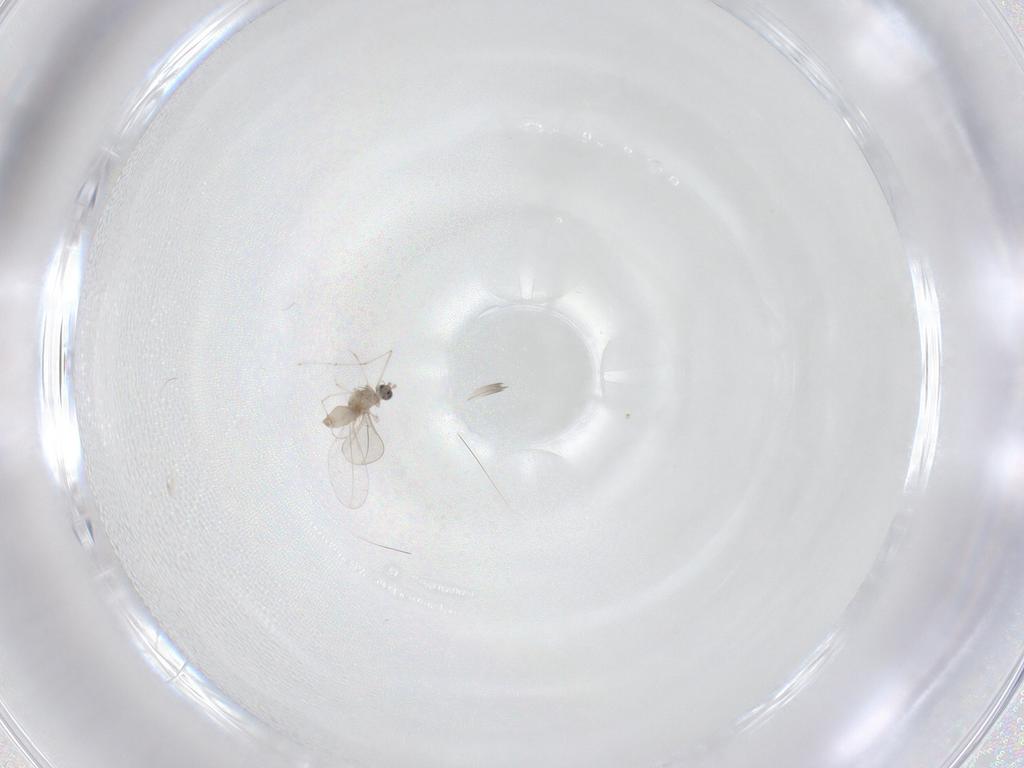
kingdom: Animalia
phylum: Arthropoda
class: Insecta
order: Diptera
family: Cecidomyiidae
